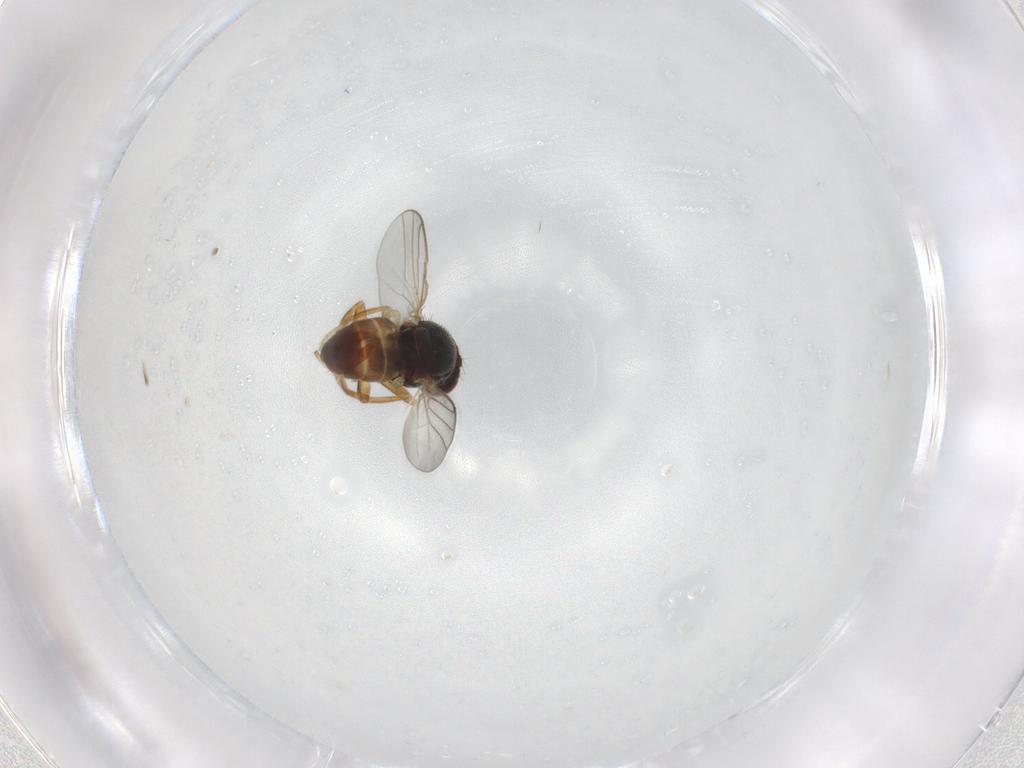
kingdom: Animalia
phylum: Arthropoda
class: Insecta
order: Diptera
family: Chloropidae
